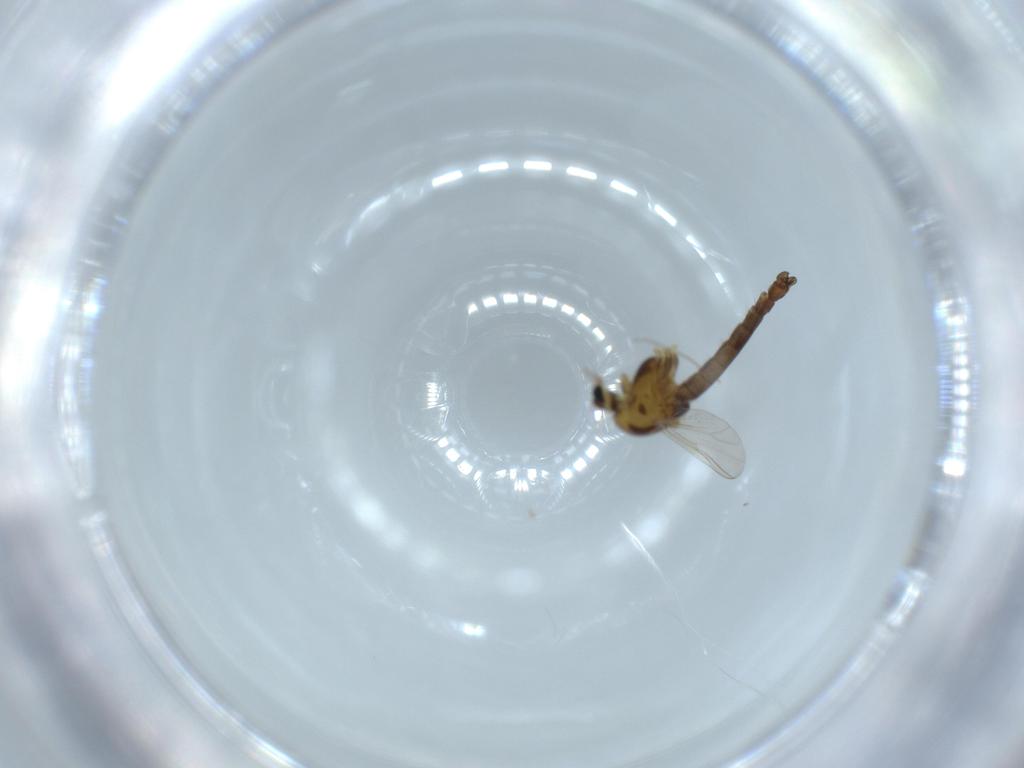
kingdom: Animalia
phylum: Arthropoda
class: Insecta
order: Diptera
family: Chironomidae
